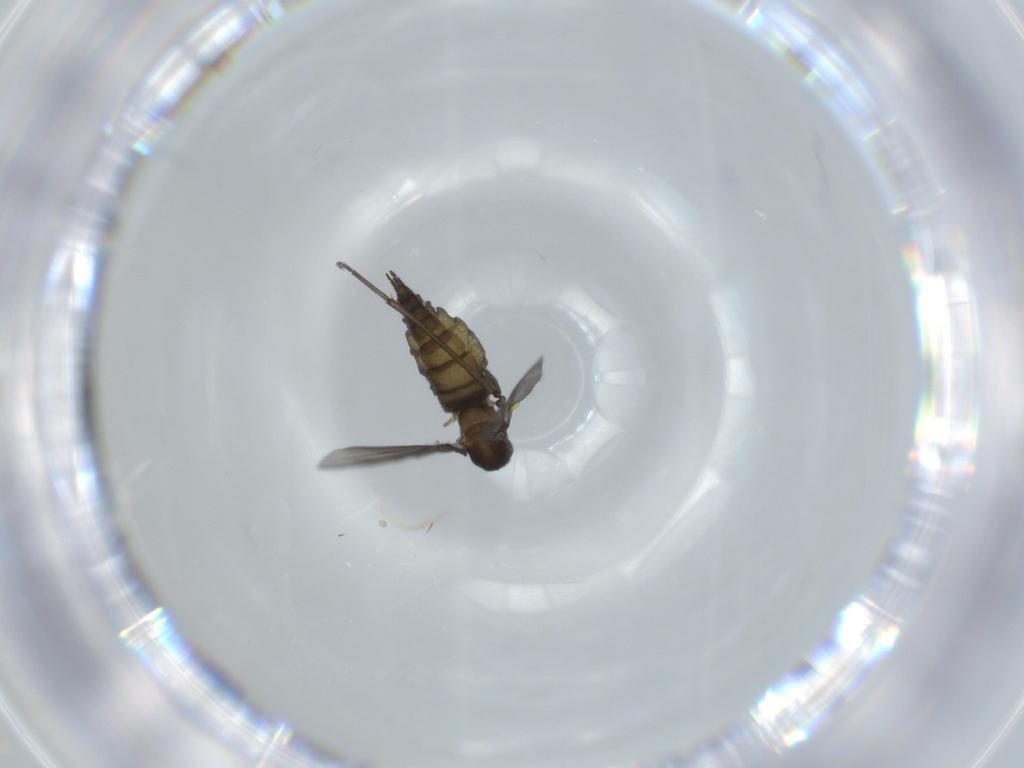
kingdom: Animalia
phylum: Arthropoda
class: Insecta
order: Diptera
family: Sciaridae
